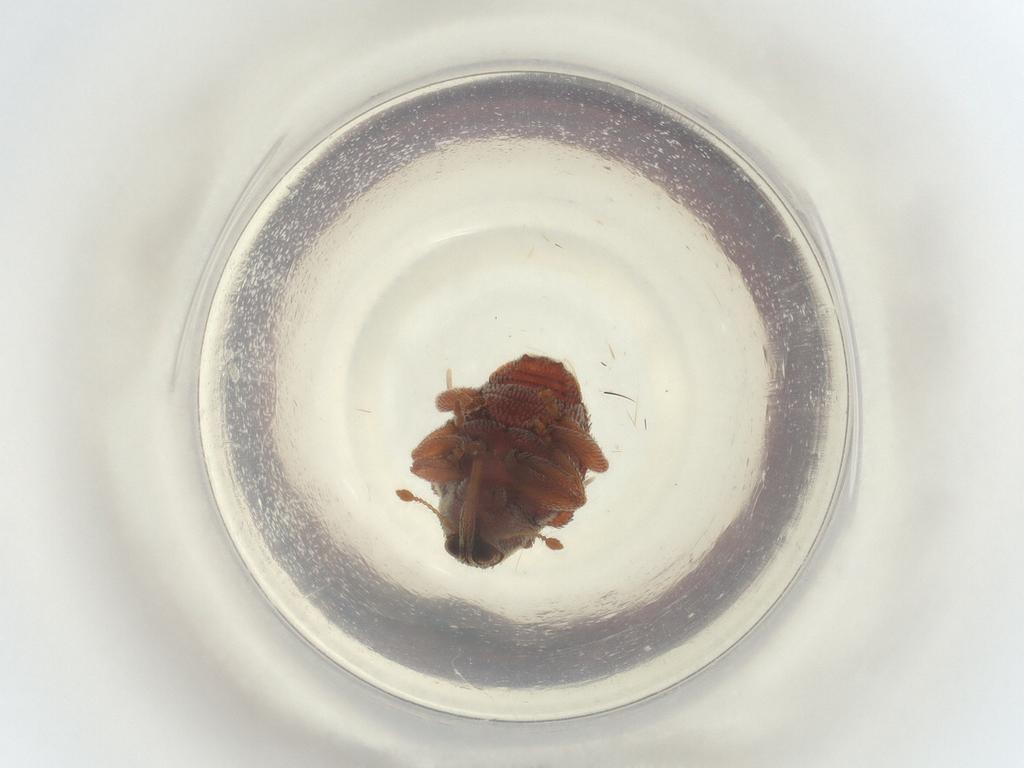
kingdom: Animalia
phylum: Arthropoda
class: Insecta
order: Coleoptera
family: Curculionidae
